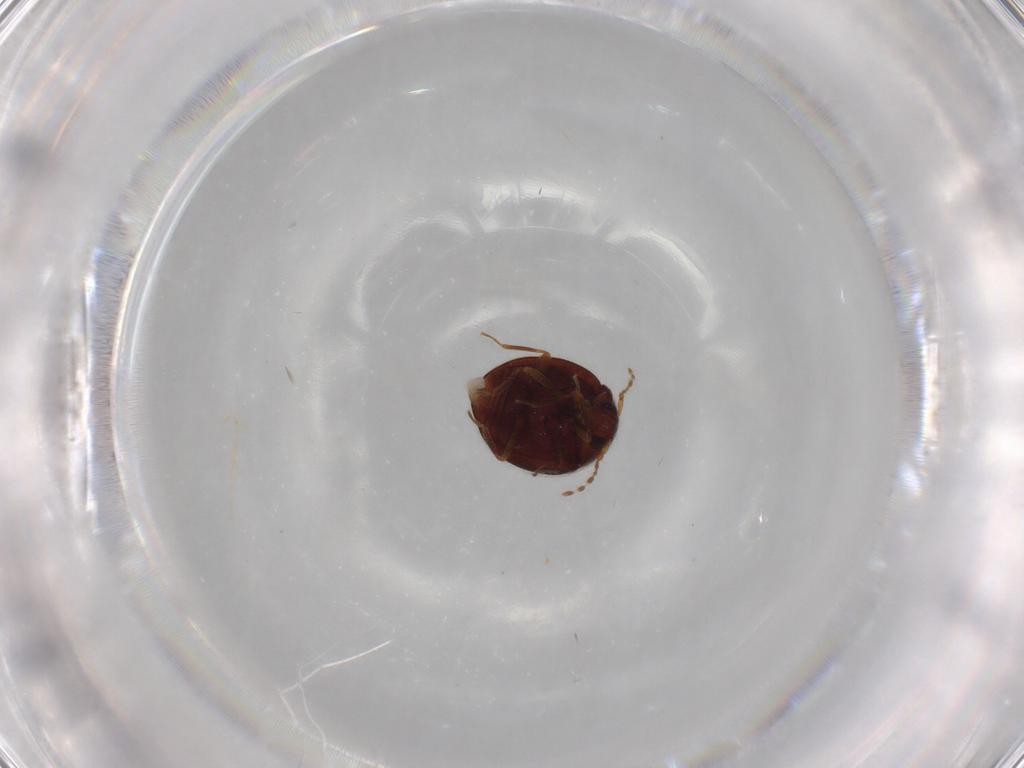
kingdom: Animalia
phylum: Arthropoda
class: Insecta
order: Coleoptera
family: Anamorphidae
